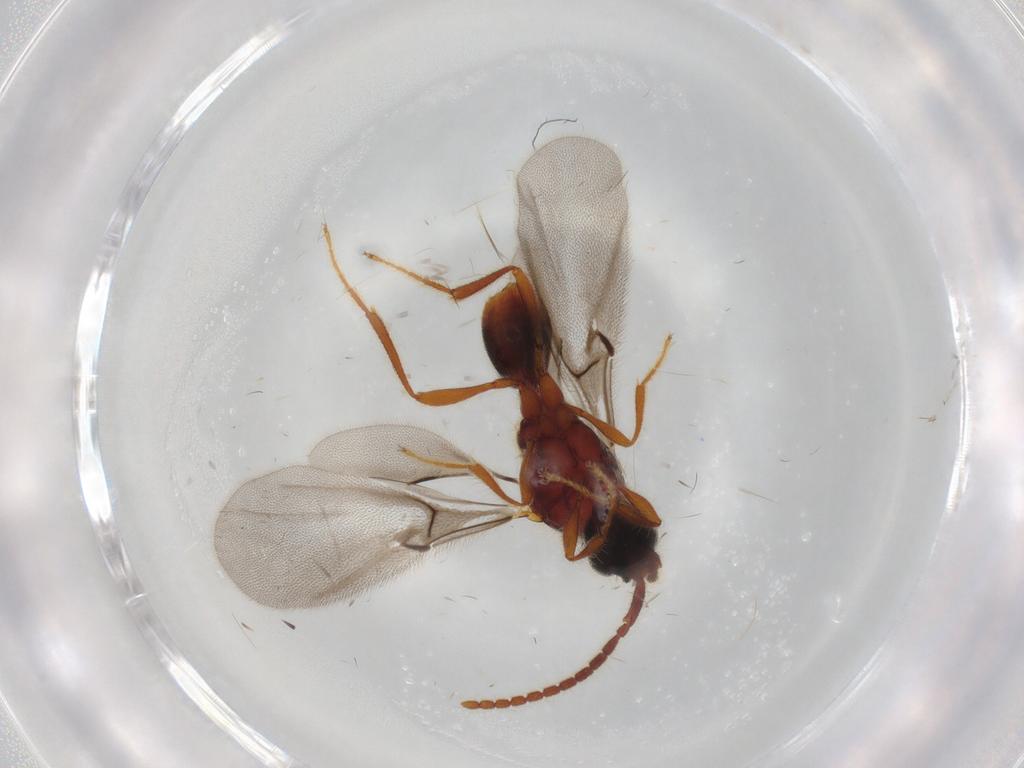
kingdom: Animalia
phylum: Arthropoda
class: Insecta
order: Hymenoptera
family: Diapriidae
